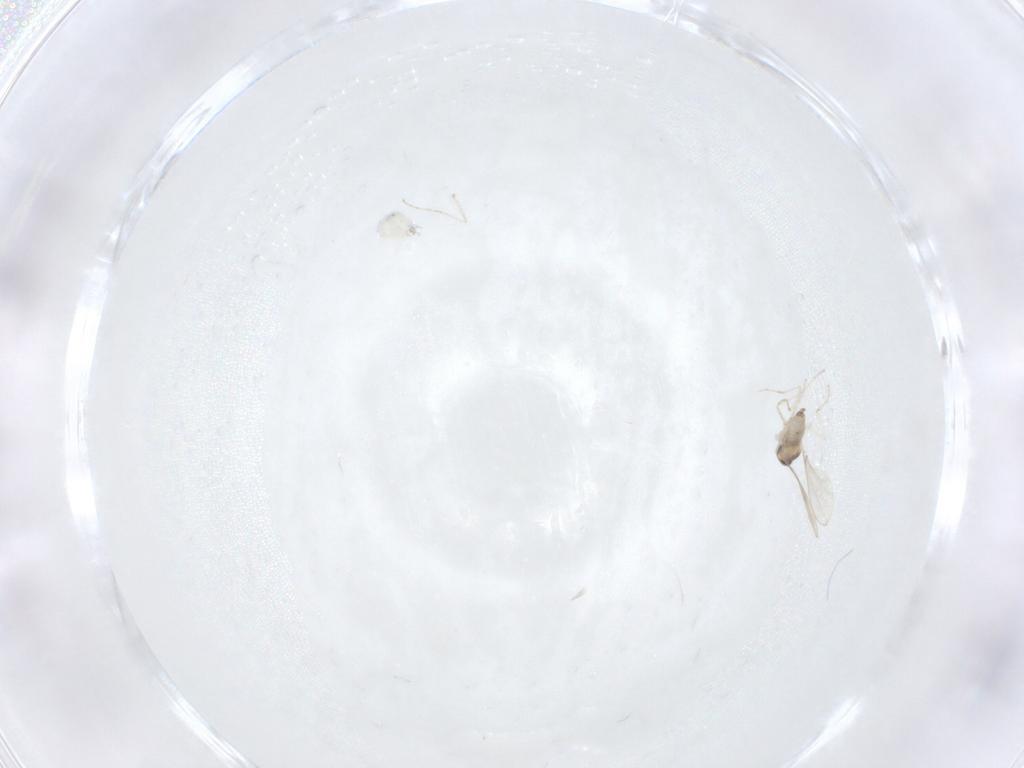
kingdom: Animalia
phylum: Arthropoda
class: Insecta
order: Diptera
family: Cecidomyiidae
